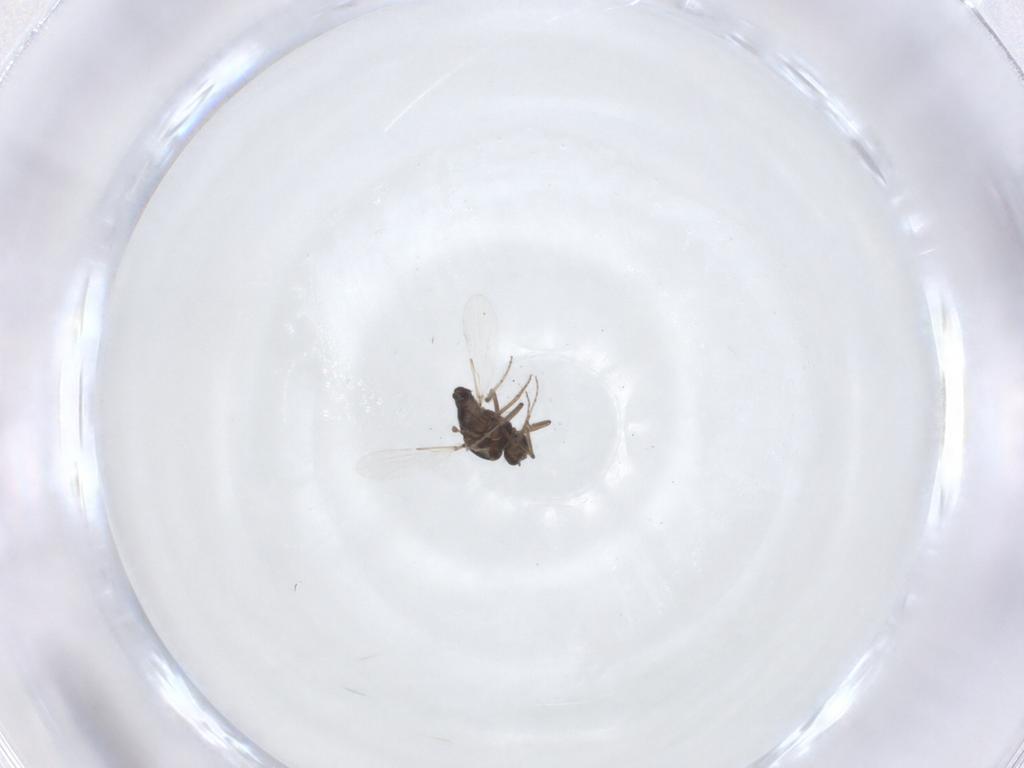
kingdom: Animalia
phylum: Arthropoda
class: Insecta
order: Diptera
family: Ceratopogonidae
